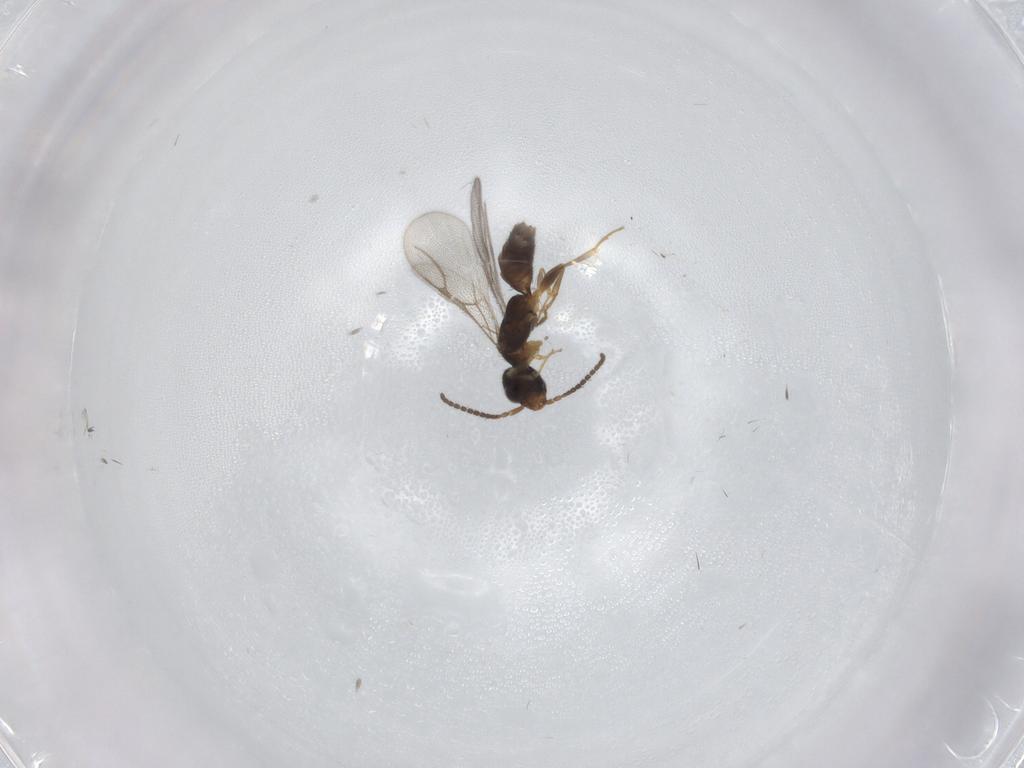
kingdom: Animalia
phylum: Arthropoda
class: Insecta
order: Hymenoptera
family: Bethylidae
